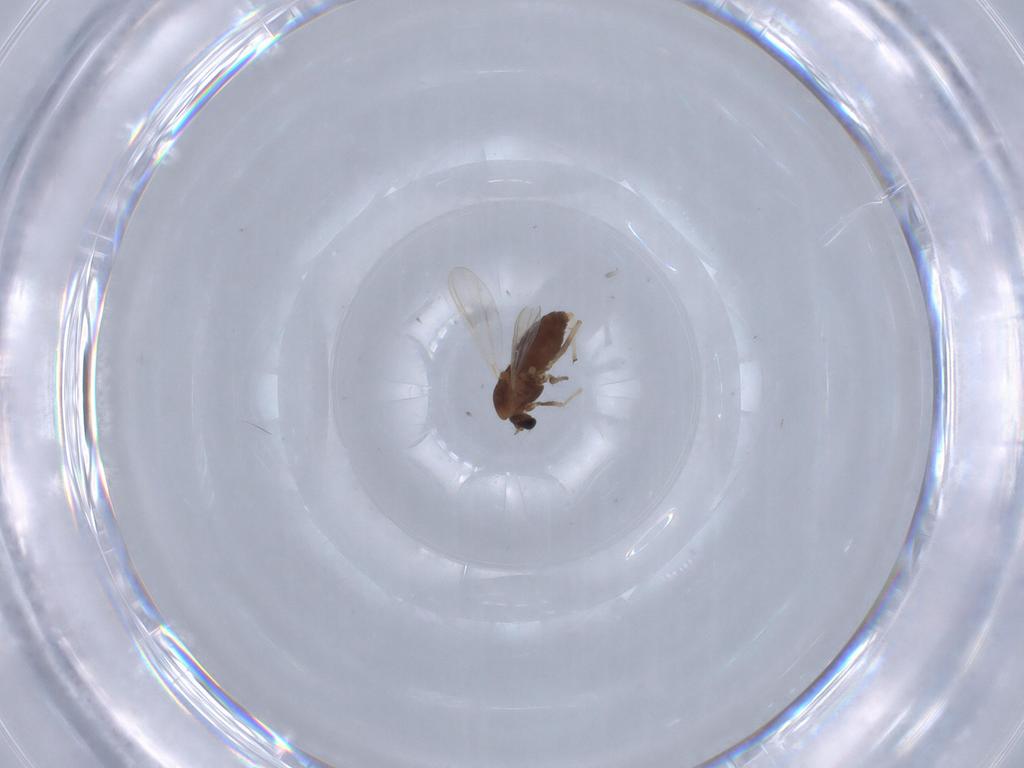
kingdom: Animalia
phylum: Arthropoda
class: Insecta
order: Diptera
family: Chironomidae
